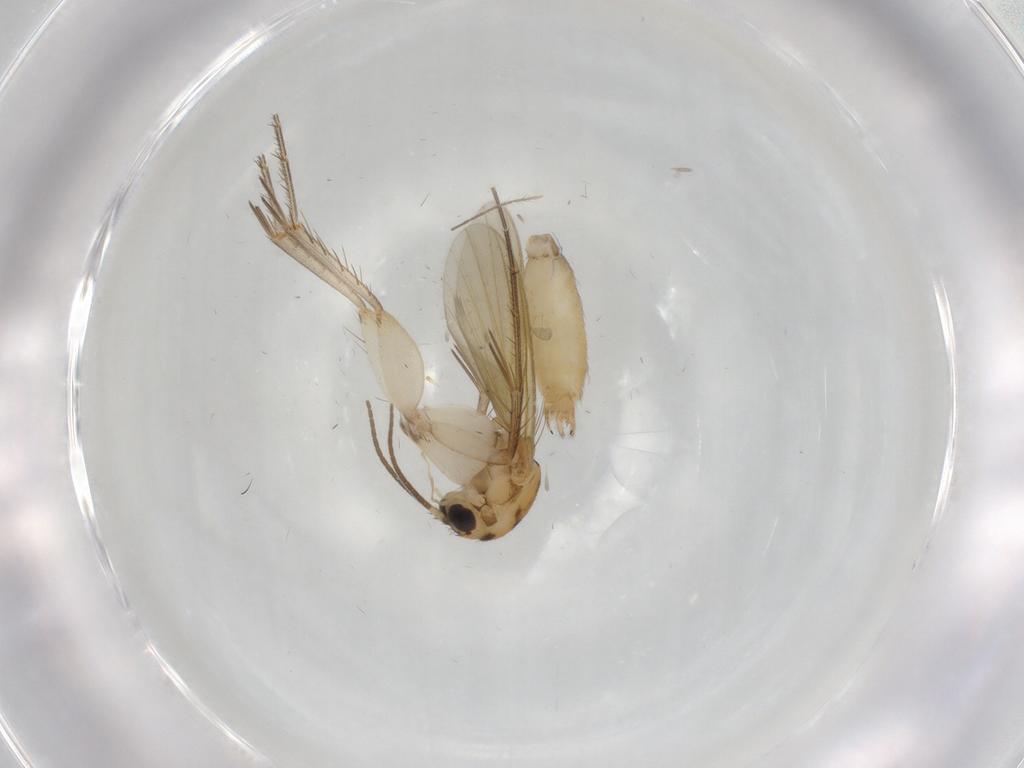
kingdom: Animalia
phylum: Arthropoda
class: Insecta
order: Diptera
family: Mycetophilidae
